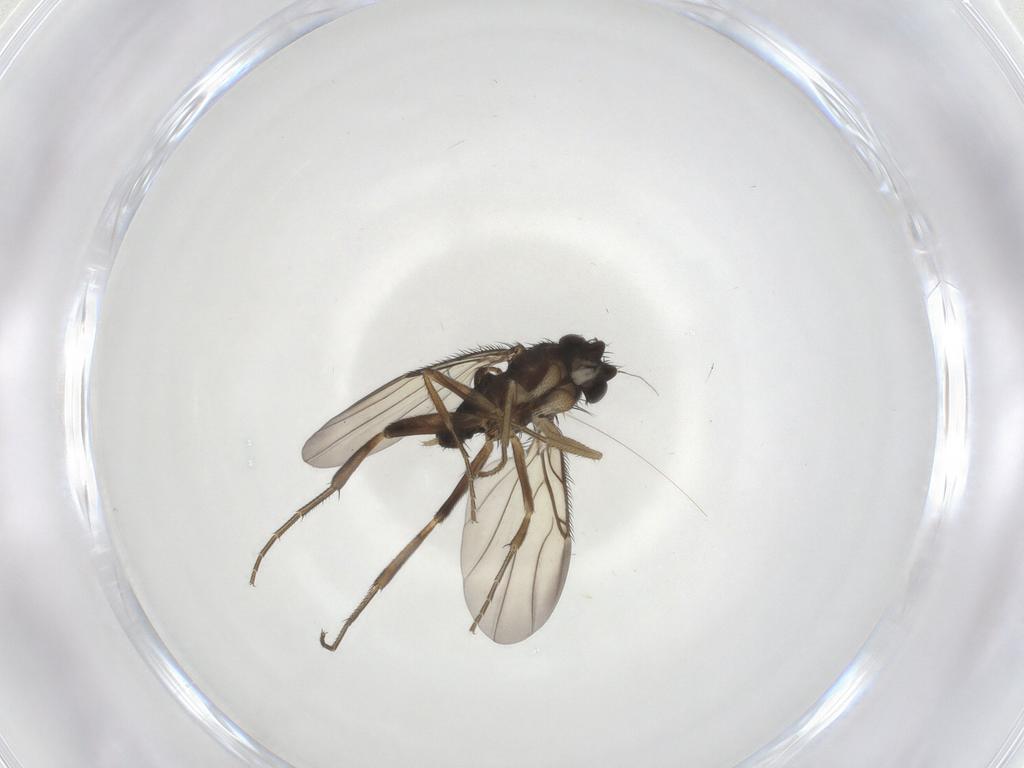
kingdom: Animalia
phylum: Arthropoda
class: Insecta
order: Diptera
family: Phoridae
